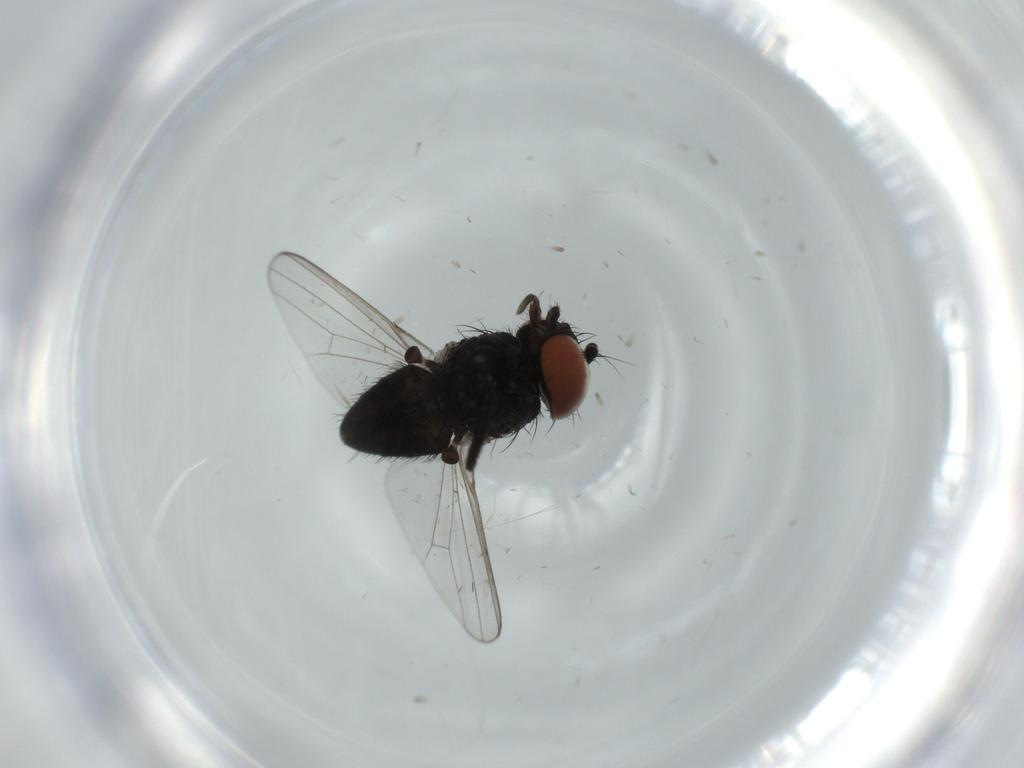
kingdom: Animalia
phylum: Arthropoda
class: Insecta
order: Diptera
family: Milichiidae
